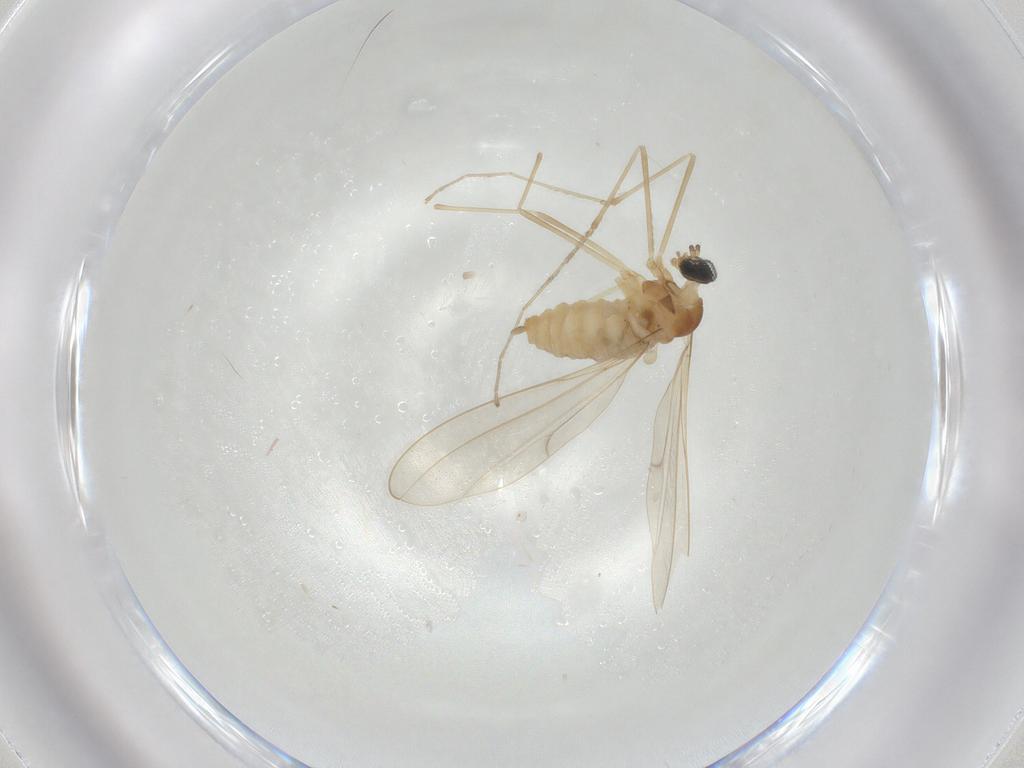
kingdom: Animalia
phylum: Arthropoda
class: Insecta
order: Diptera
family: Cecidomyiidae
